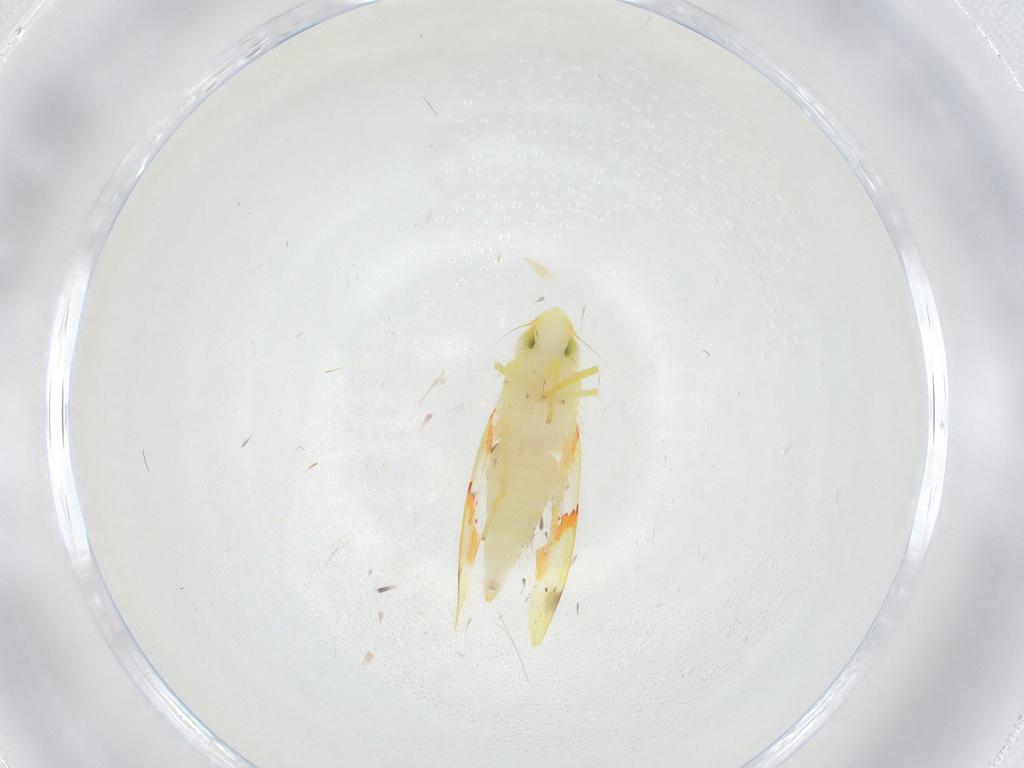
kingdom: Animalia
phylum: Arthropoda
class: Insecta
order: Hemiptera
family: Cicadellidae
